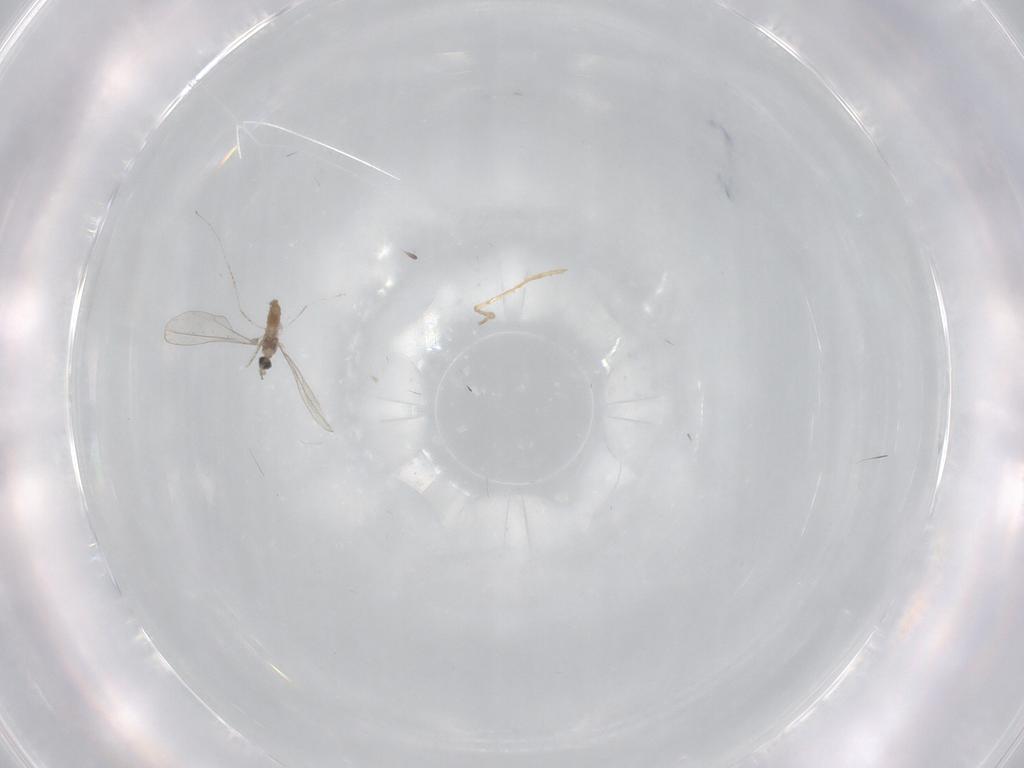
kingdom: Animalia
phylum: Arthropoda
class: Insecta
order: Diptera
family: Cecidomyiidae
